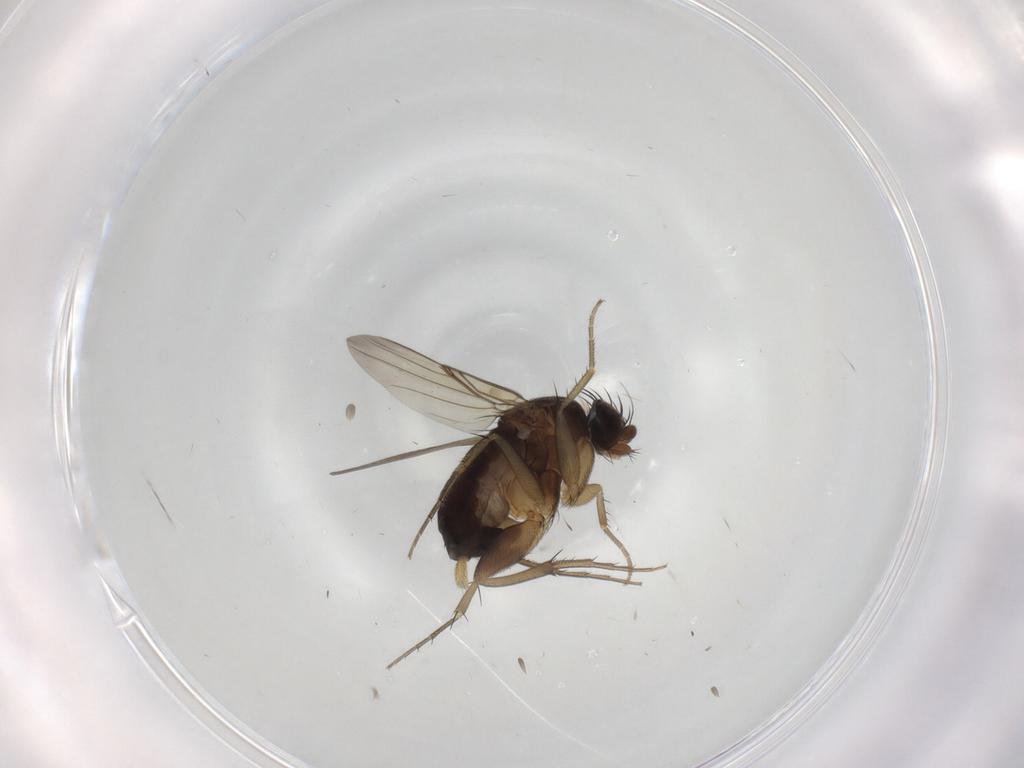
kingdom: Animalia
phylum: Arthropoda
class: Insecta
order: Diptera
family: Phoridae
